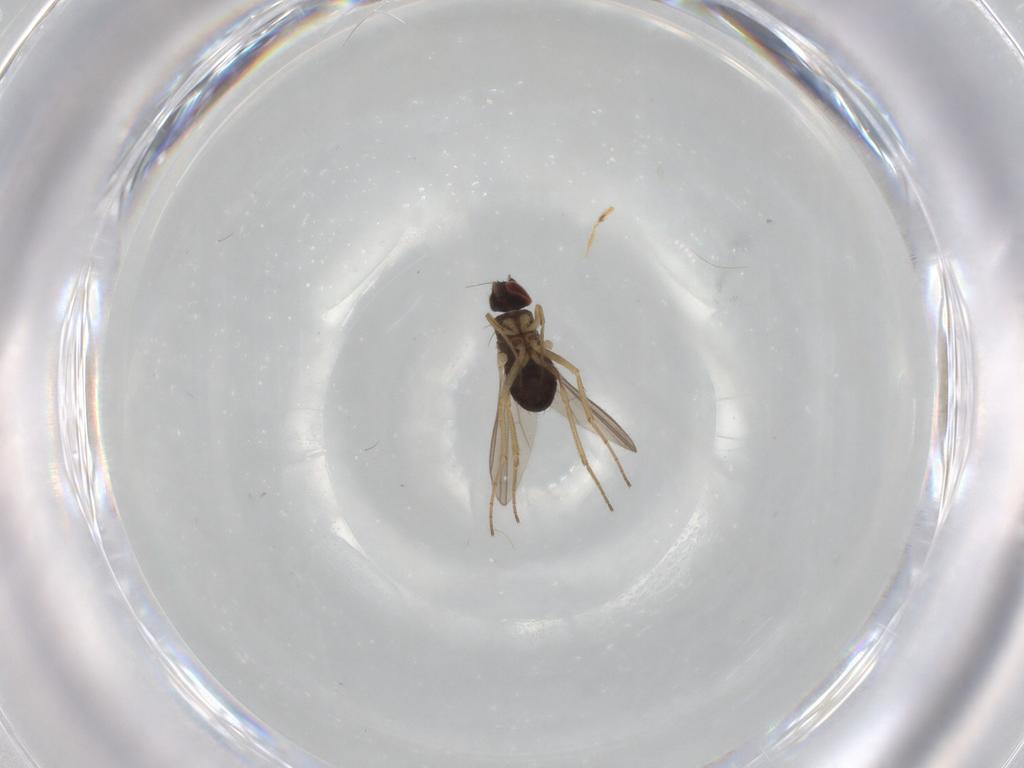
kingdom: Animalia
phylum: Arthropoda
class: Insecta
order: Diptera
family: Dolichopodidae
